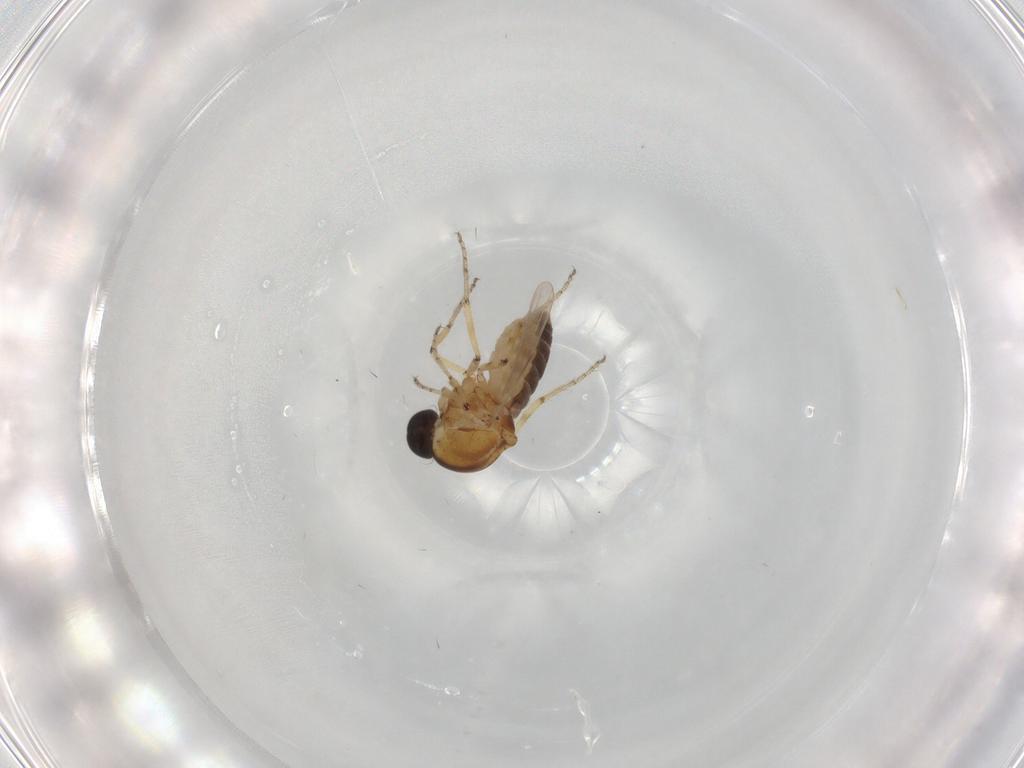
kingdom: Animalia
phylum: Arthropoda
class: Insecta
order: Diptera
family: Ceratopogonidae
